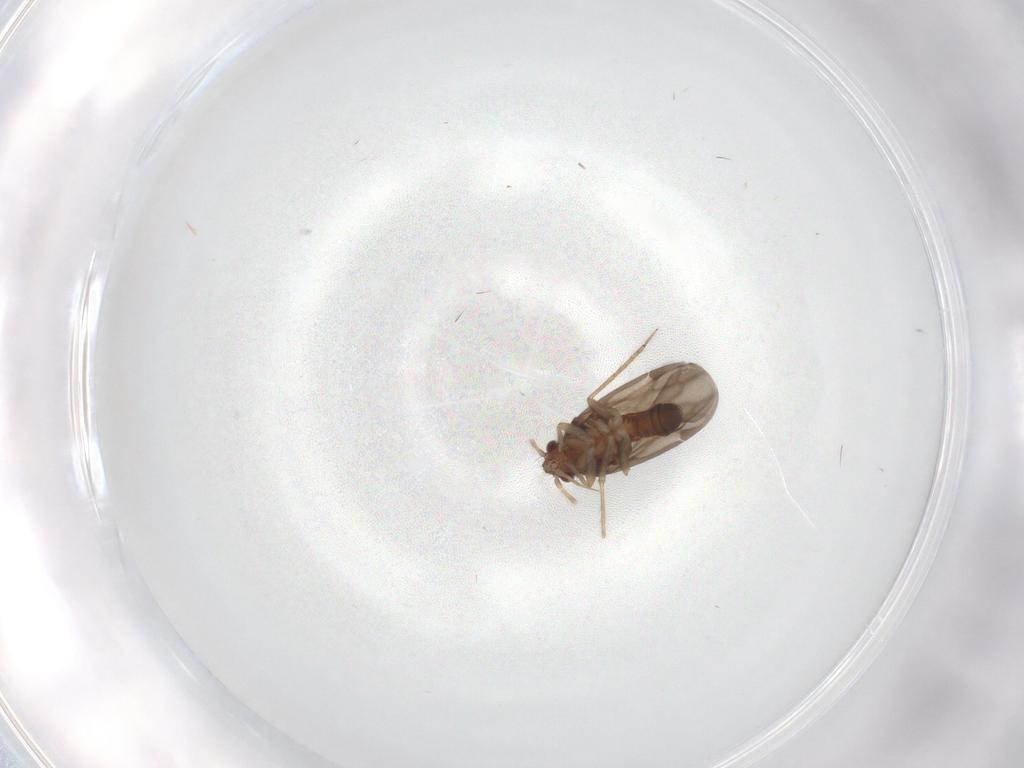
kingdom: Animalia
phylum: Arthropoda
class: Insecta
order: Hemiptera
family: Ceratocombidae
